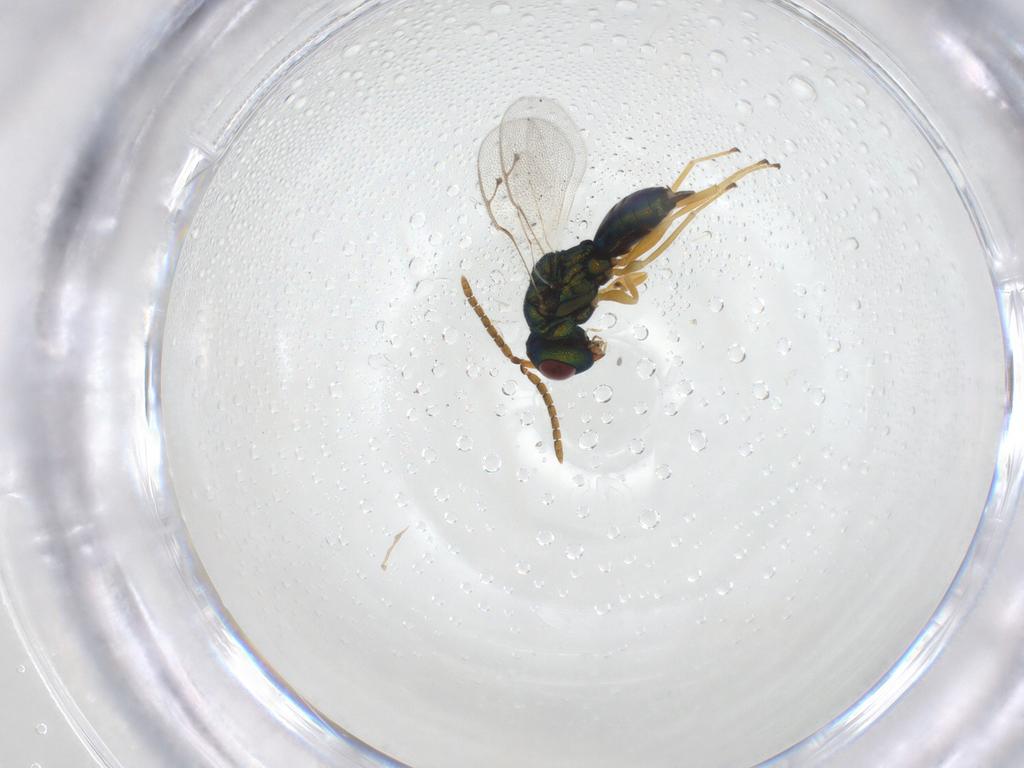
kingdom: Animalia
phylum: Arthropoda
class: Insecta
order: Hymenoptera
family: Pteromalidae
